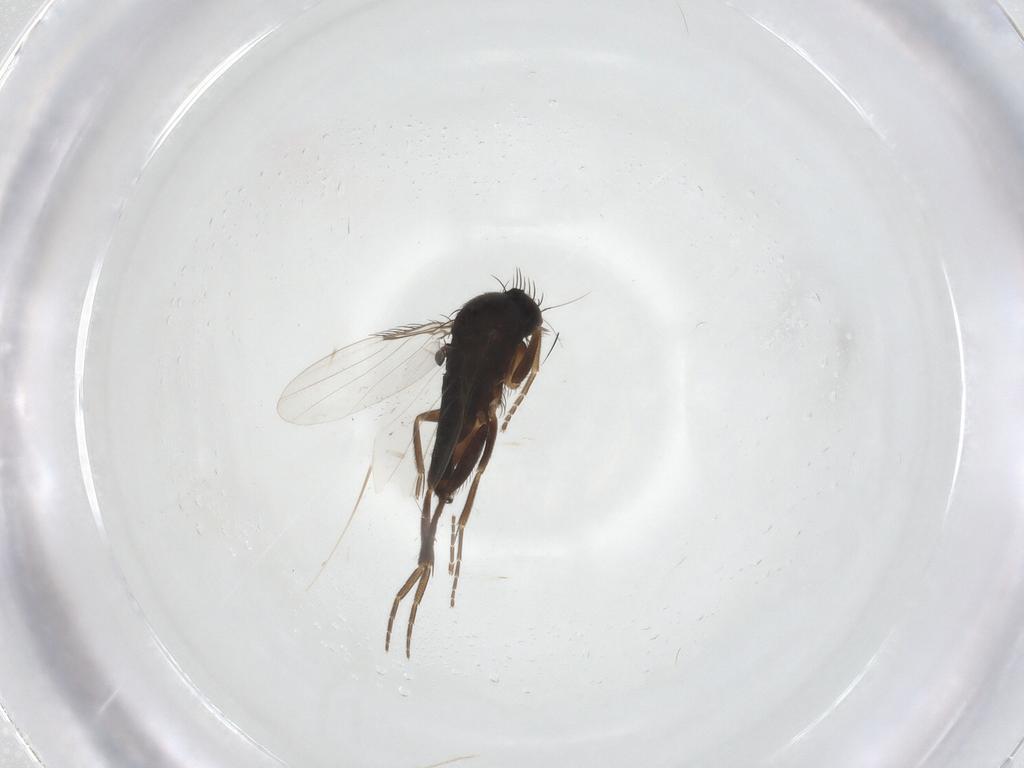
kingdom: Animalia
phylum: Arthropoda
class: Insecta
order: Diptera
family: Phoridae
